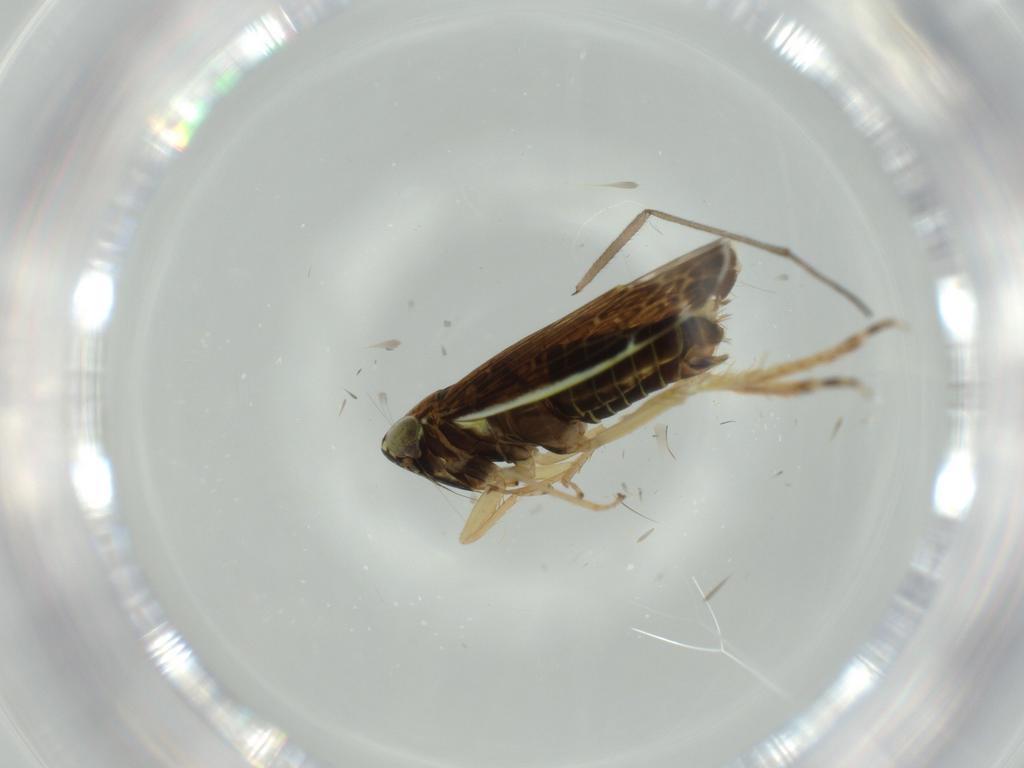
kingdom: Animalia
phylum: Arthropoda
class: Insecta
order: Hemiptera
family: Cicadellidae
